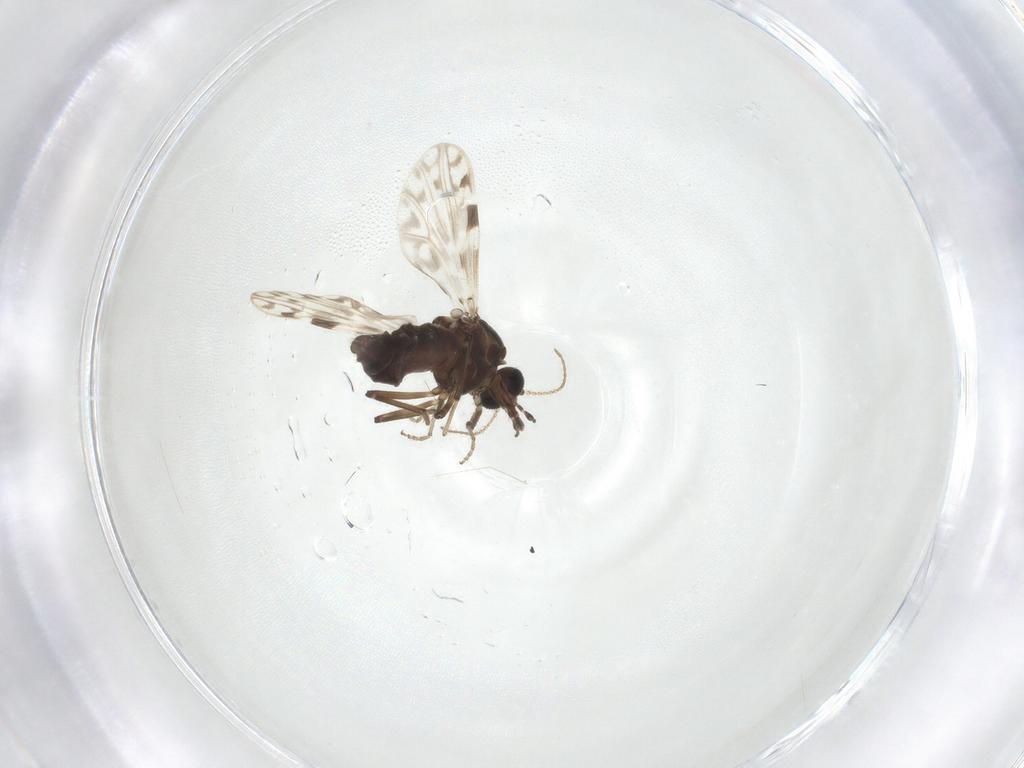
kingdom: Animalia
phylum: Arthropoda
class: Insecta
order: Diptera
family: Ceratopogonidae
